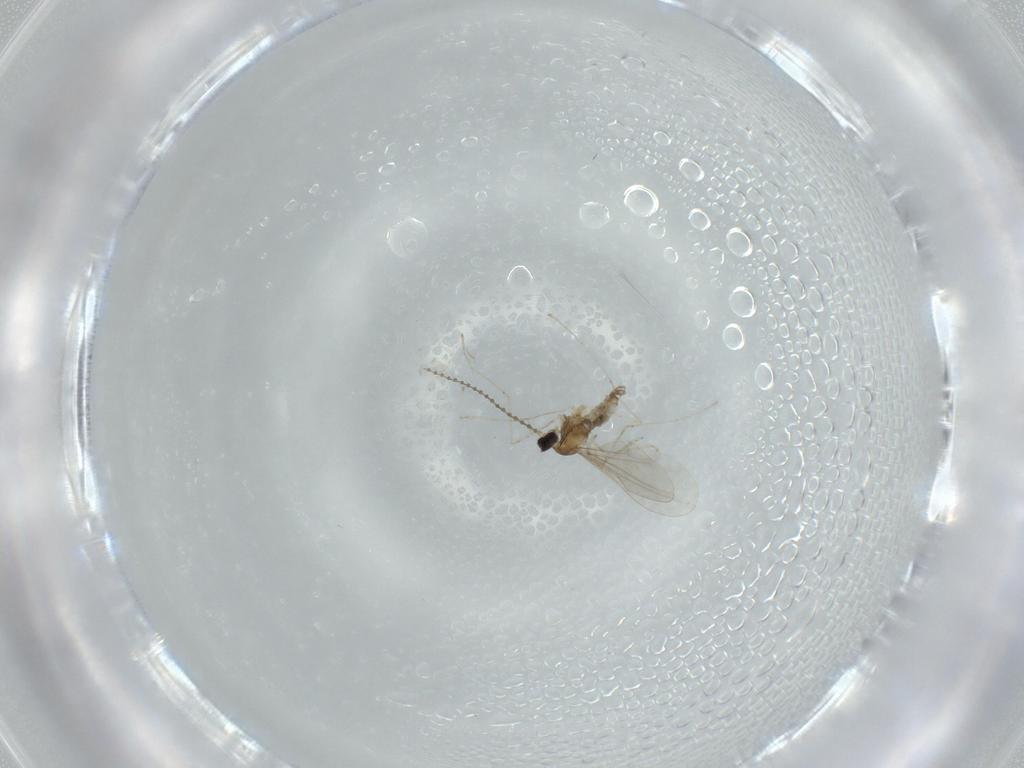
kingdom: Animalia
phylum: Arthropoda
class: Insecta
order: Diptera
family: Cecidomyiidae
